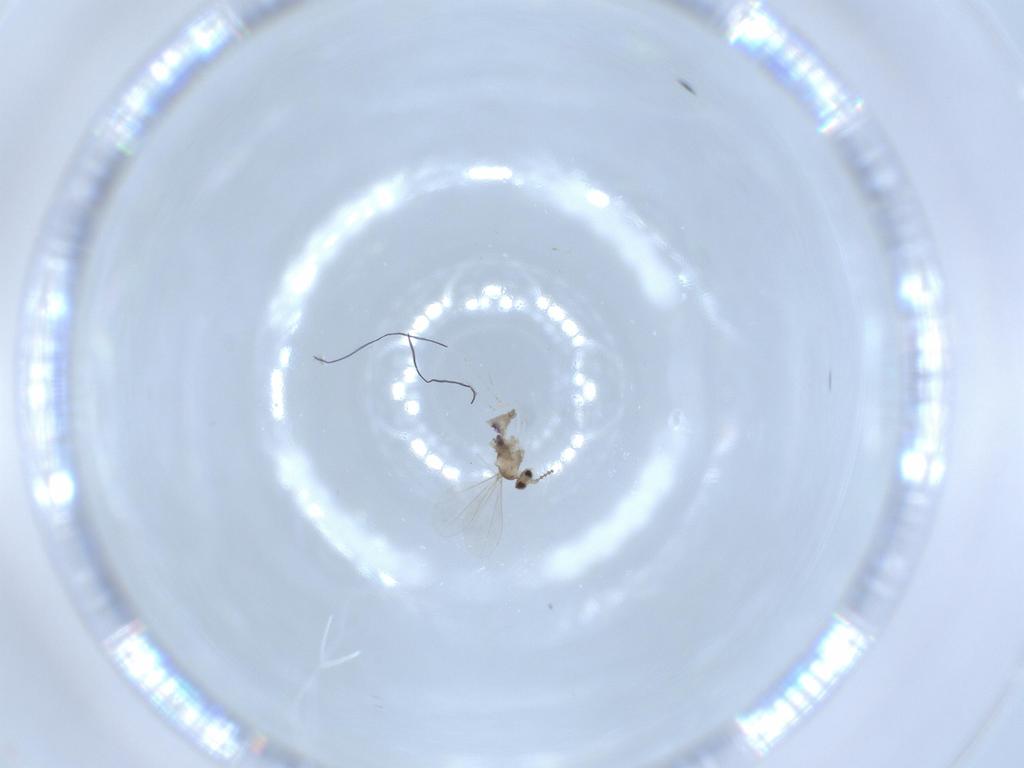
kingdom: Animalia
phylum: Arthropoda
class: Insecta
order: Diptera
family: Cecidomyiidae
